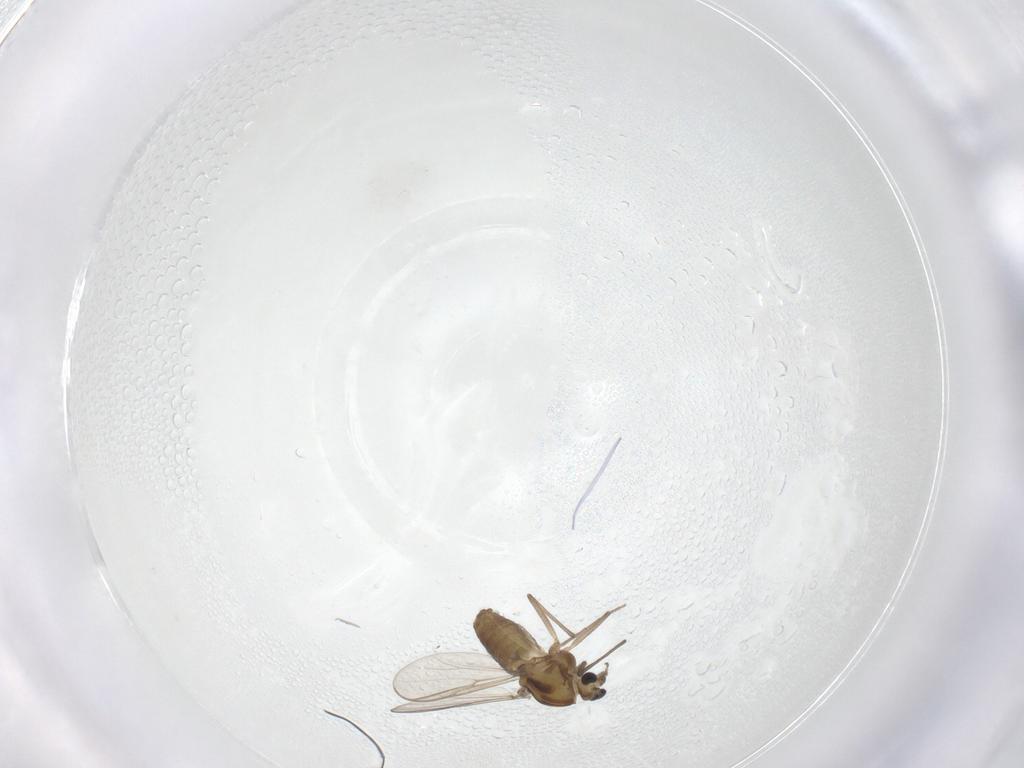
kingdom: Animalia
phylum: Arthropoda
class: Insecta
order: Diptera
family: Chironomidae
